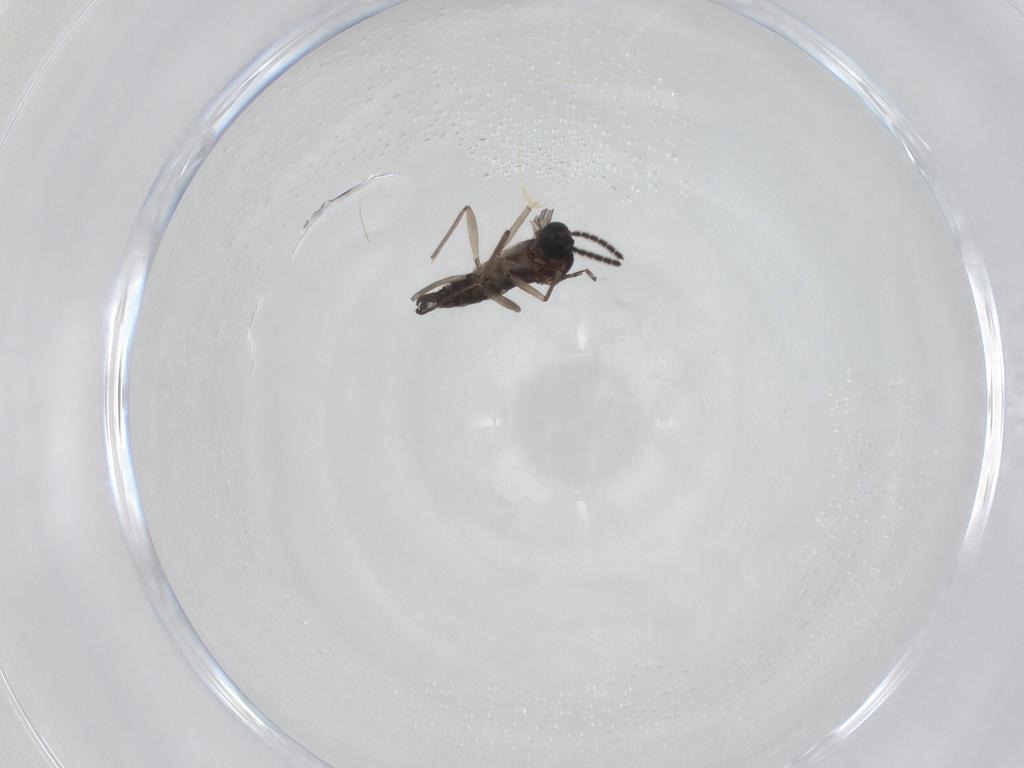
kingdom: Animalia
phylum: Arthropoda
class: Insecta
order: Diptera
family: Sciaridae
